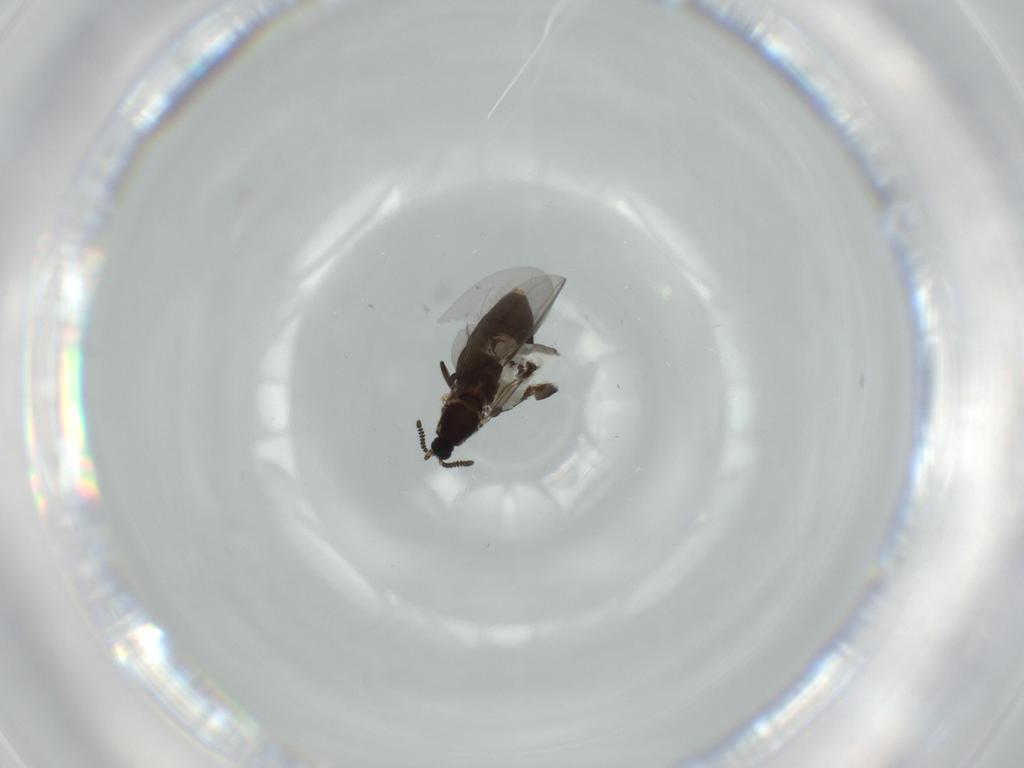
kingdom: Animalia
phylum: Arthropoda
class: Insecta
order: Diptera
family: Scatopsidae
